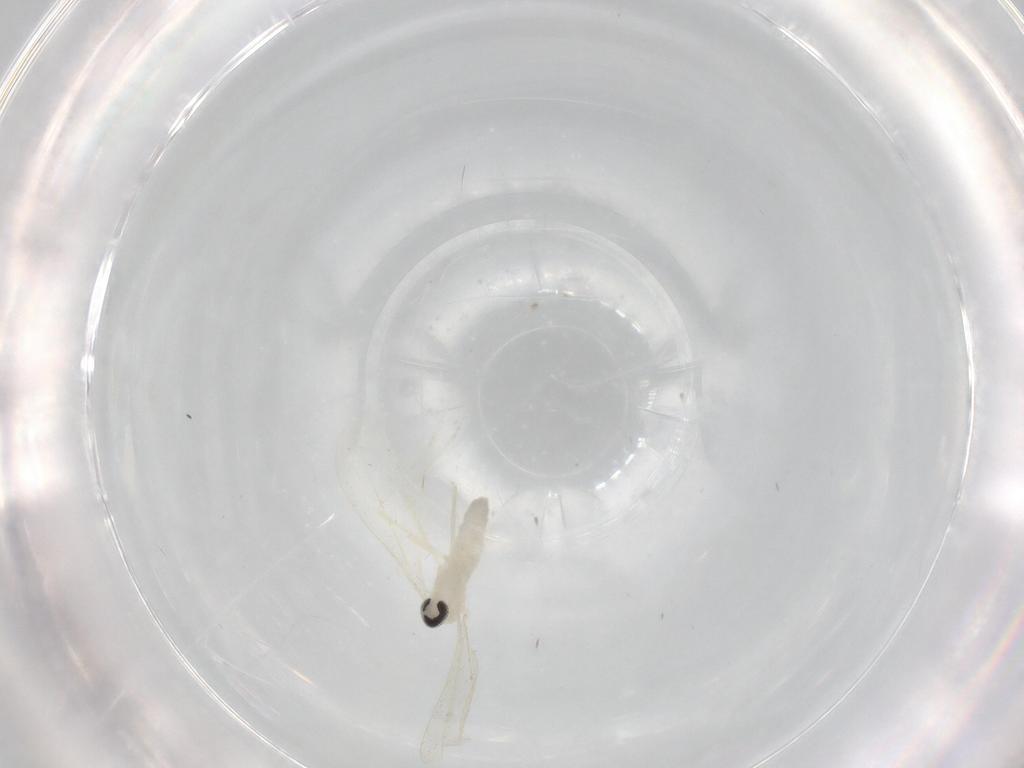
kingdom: Animalia
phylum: Arthropoda
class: Insecta
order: Diptera
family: Cecidomyiidae
